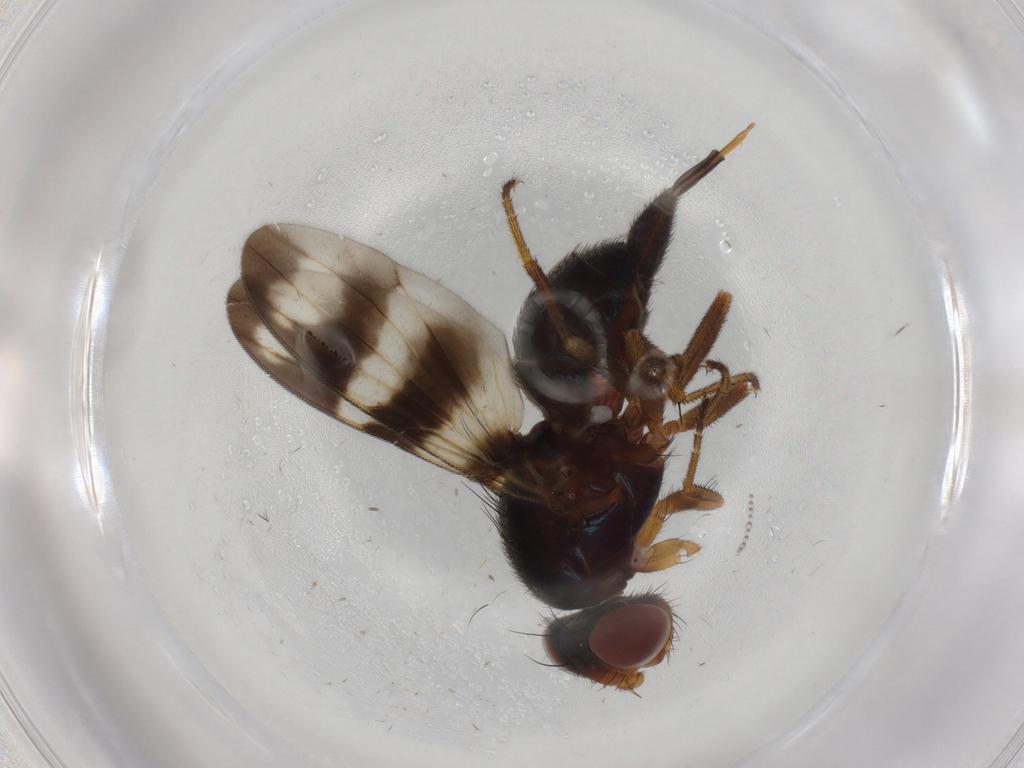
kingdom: Animalia
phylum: Arthropoda
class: Insecta
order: Diptera
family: Ceratopogonidae
